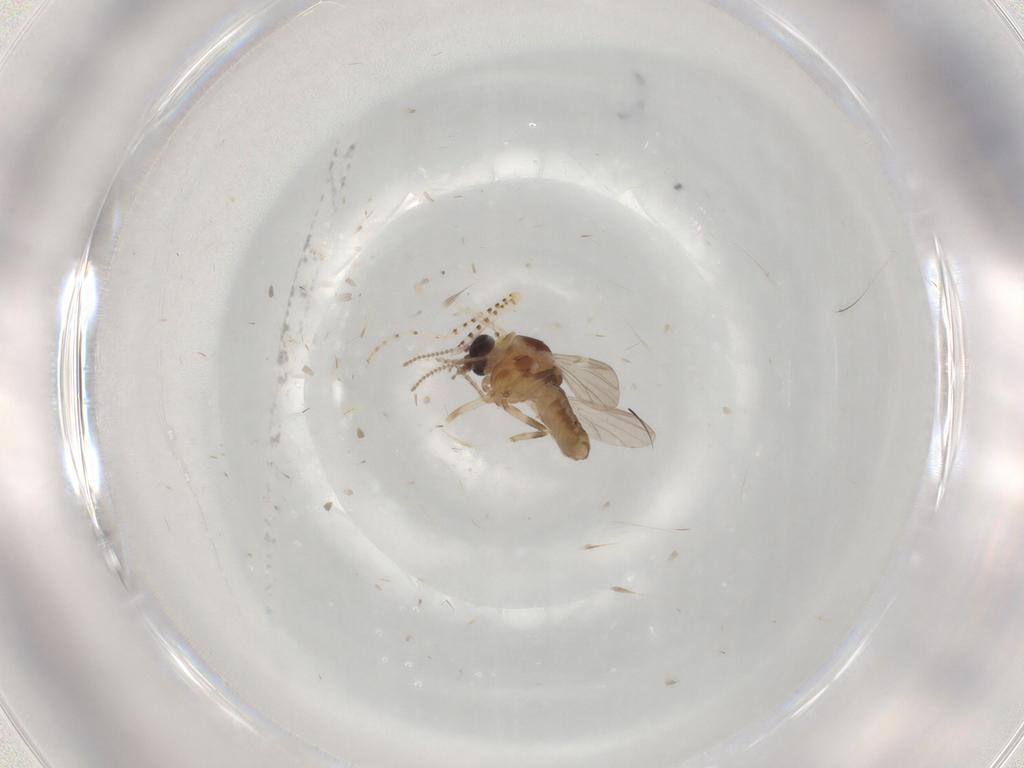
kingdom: Animalia
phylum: Arthropoda
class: Insecta
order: Diptera
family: Ceratopogonidae
